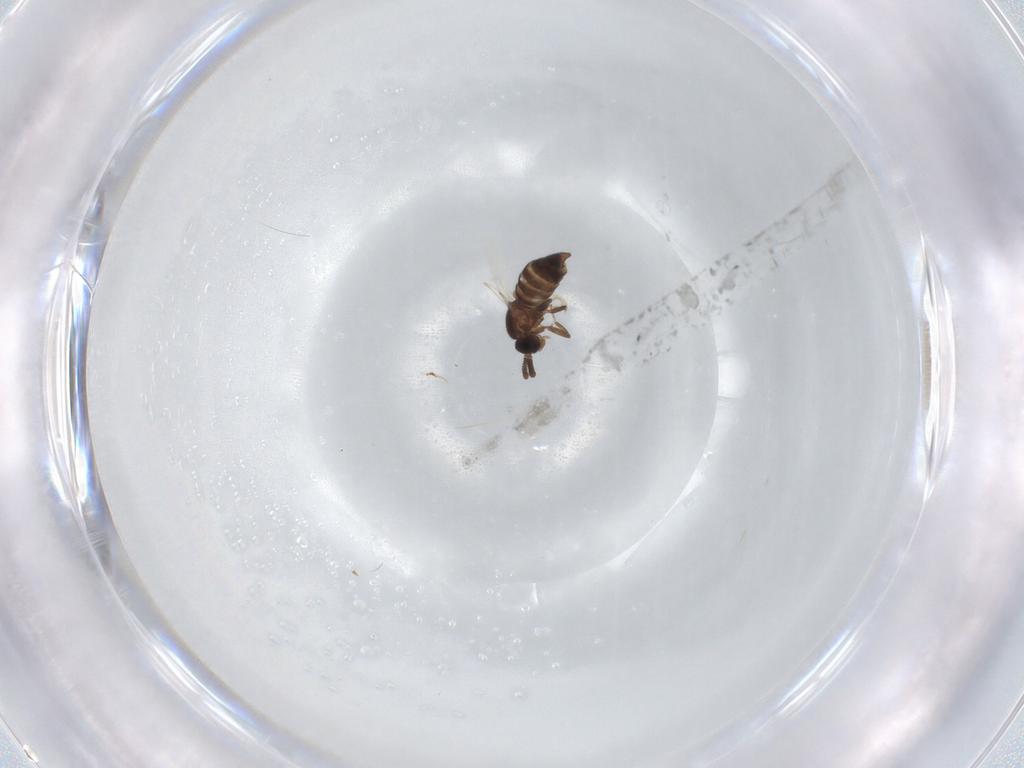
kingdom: Animalia
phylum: Arthropoda
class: Insecta
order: Diptera
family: Scatopsidae
